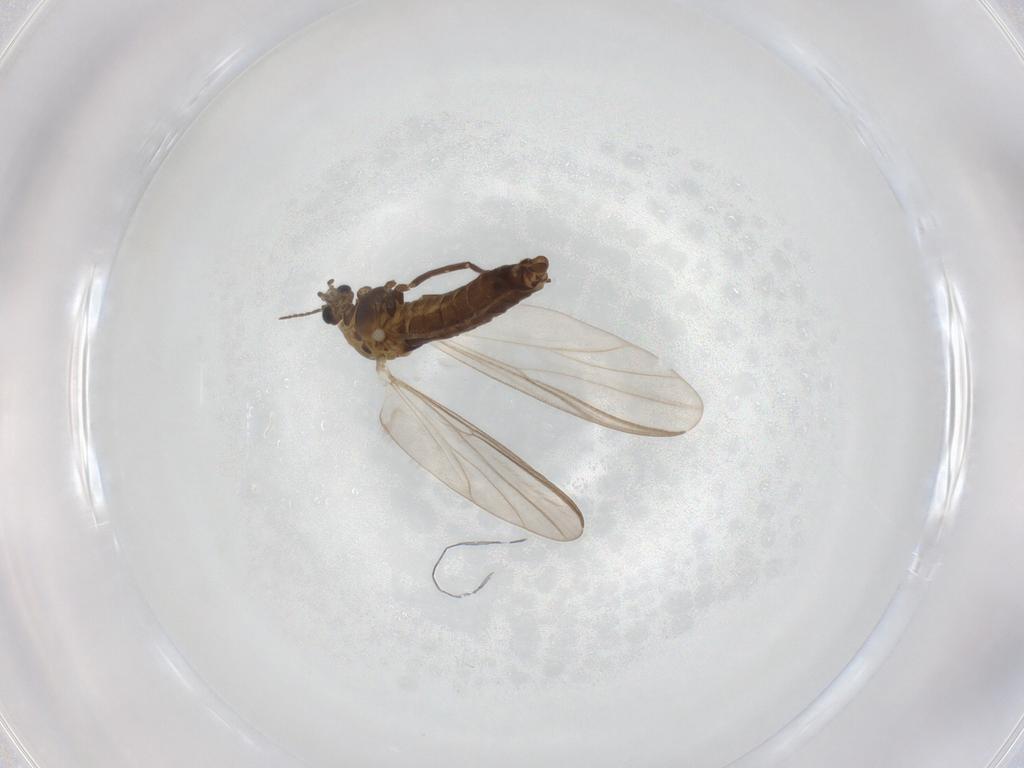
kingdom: Animalia
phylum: Arthropoda
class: Insecta
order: Diptera
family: Chironomidae
